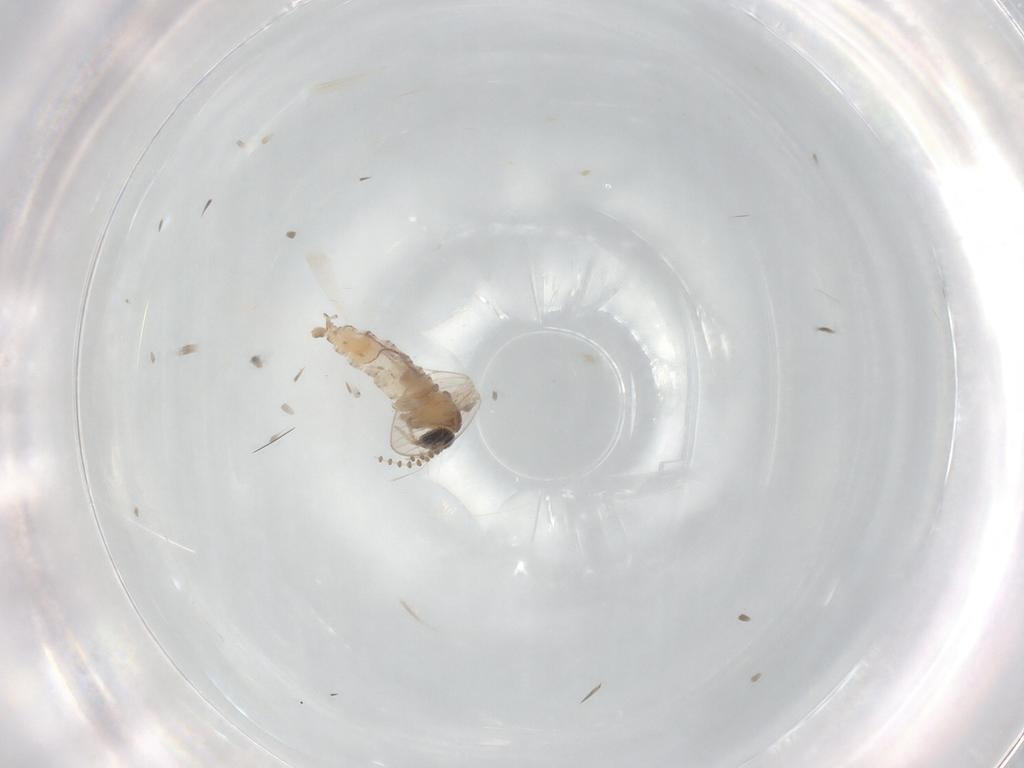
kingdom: Animalia
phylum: Arthropoda
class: Insecta
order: Diptera
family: Psychodidae
